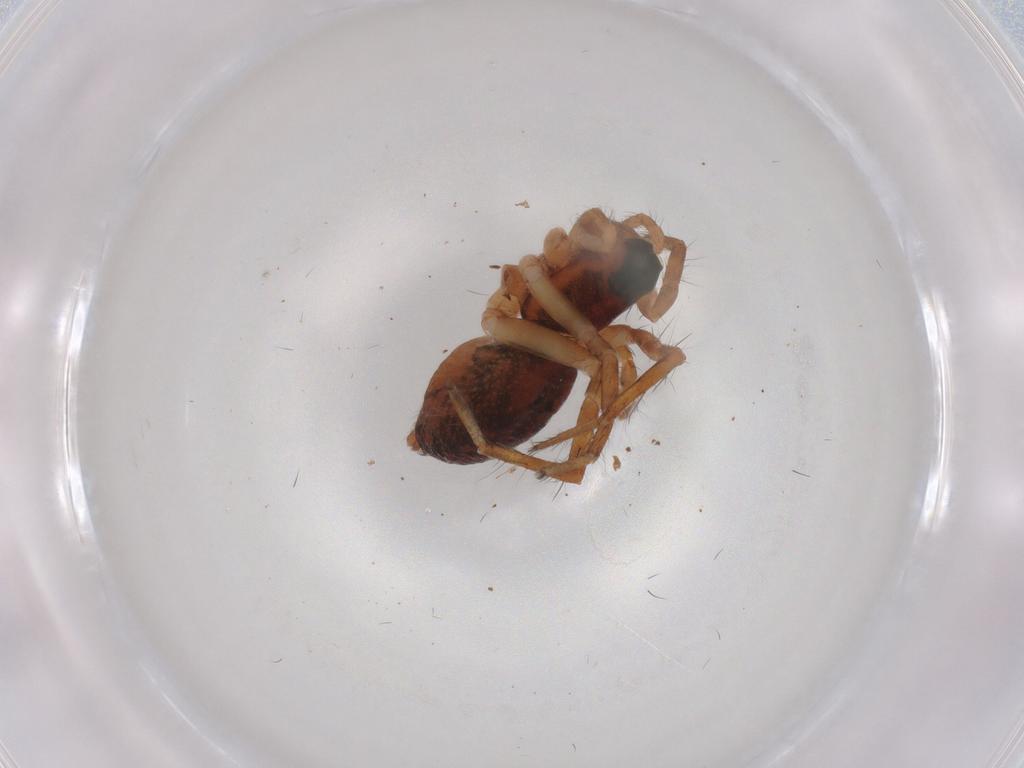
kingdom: Animalia
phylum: Arthropoda
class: Arachnida
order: Araneae
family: Lycosidae
